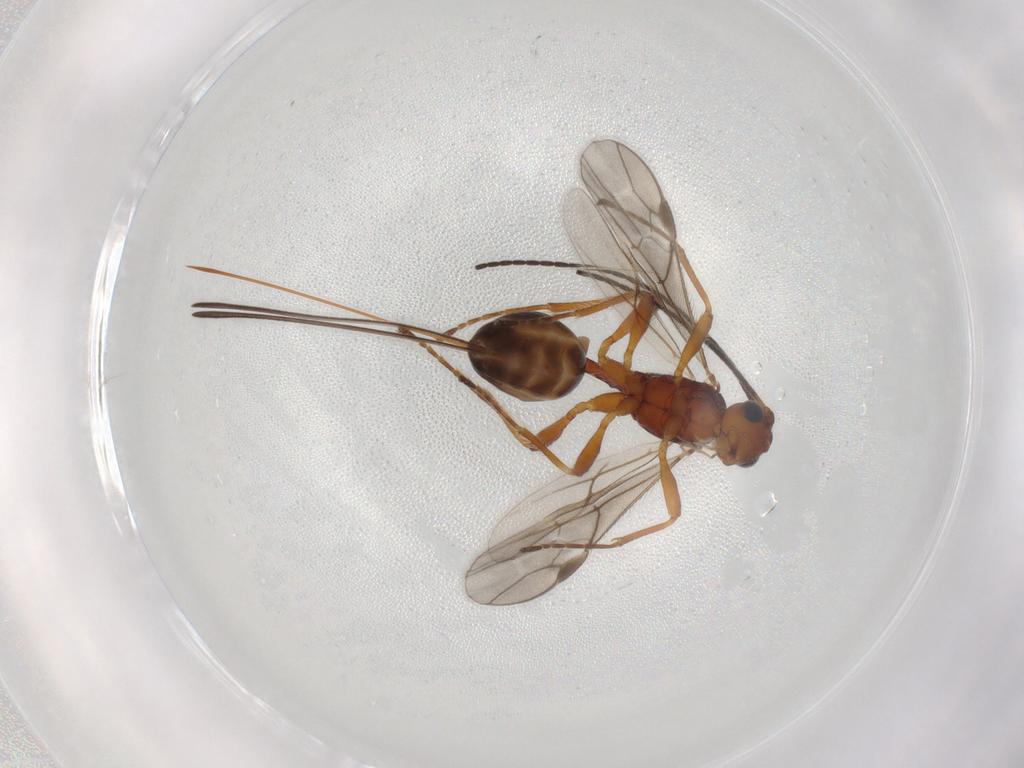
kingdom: Animalia
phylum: Arthropoda
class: Insecta
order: Hymenoptera
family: Braconidae
